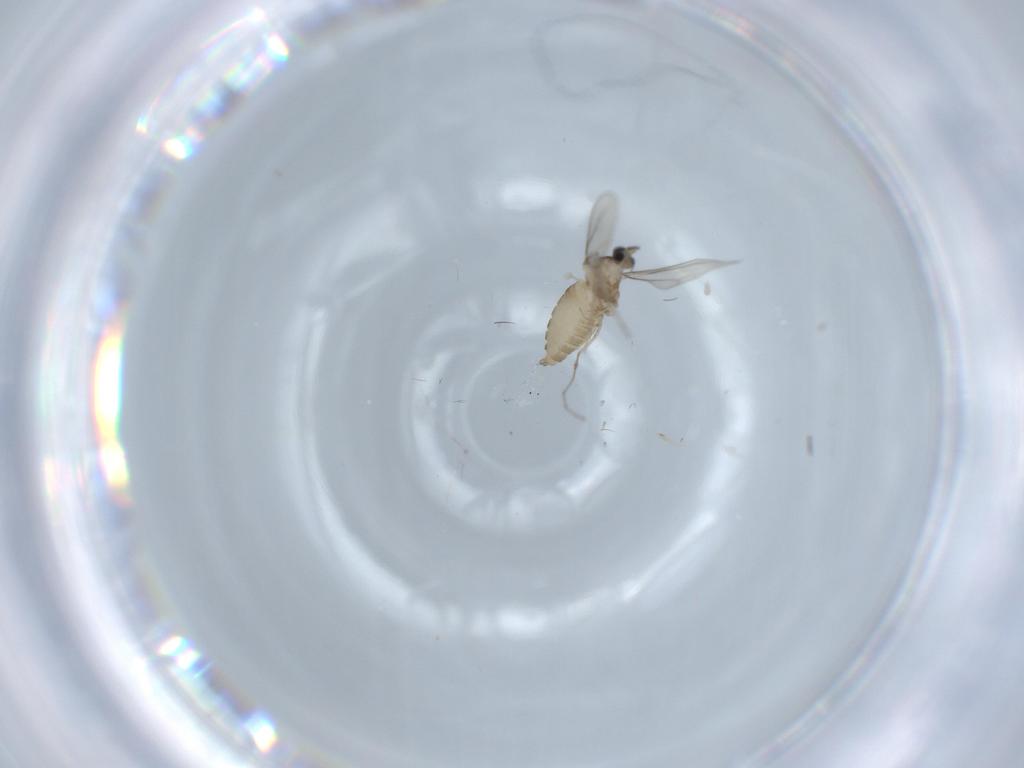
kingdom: Animalia
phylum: Arthropoda
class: Insecta
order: Diptera
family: Cecidomyiidae
